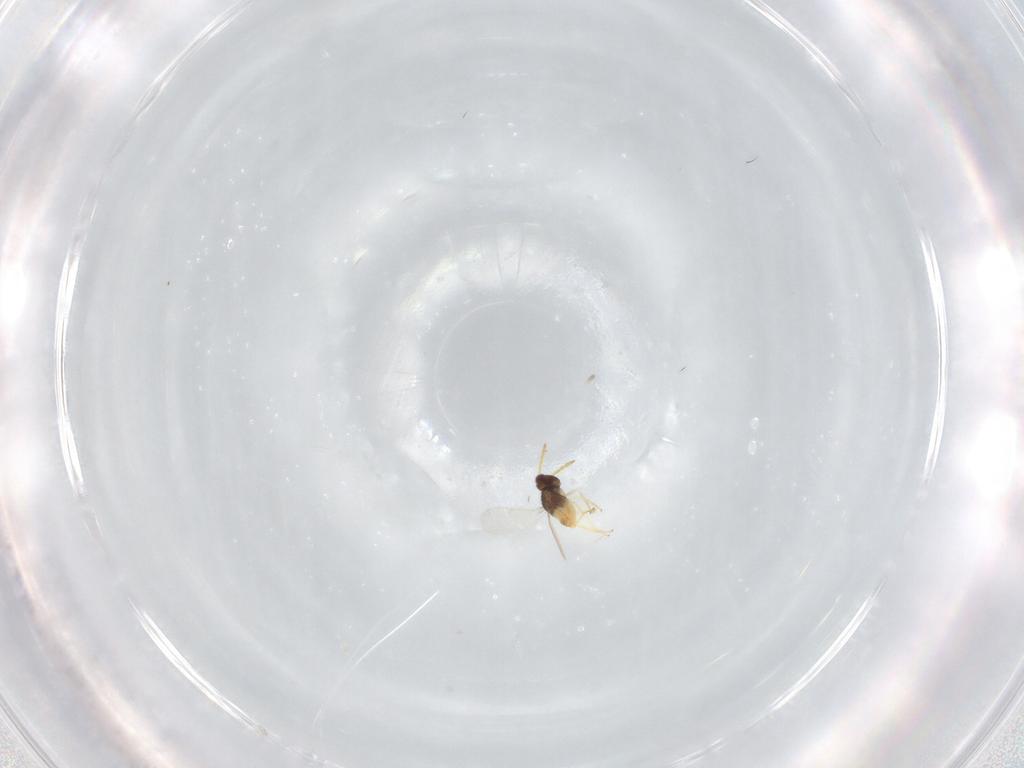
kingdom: Animalia
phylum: Arthropoda
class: Insecta
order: Hymenoptera
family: Aphelinidae
